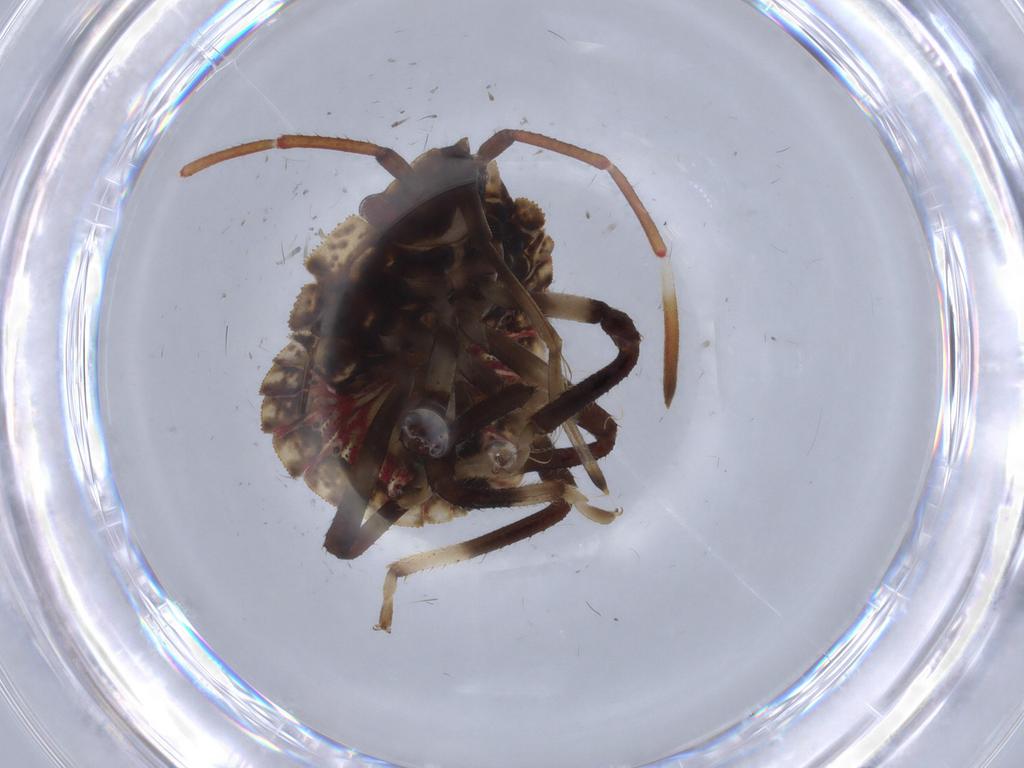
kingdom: Animalia
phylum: Arthropoda
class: Insecta
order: Hemiptera
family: Pentatomidae
